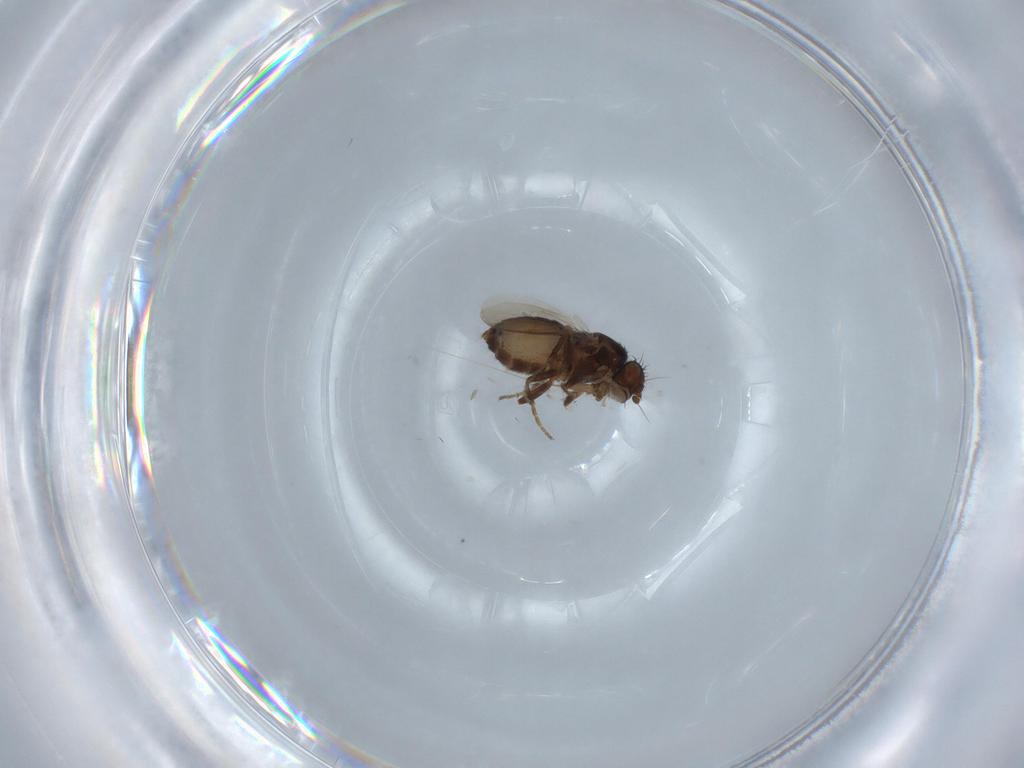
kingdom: Animalia
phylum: Arthropoda
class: Insecta
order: Diptera
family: Sphaeroceridae
